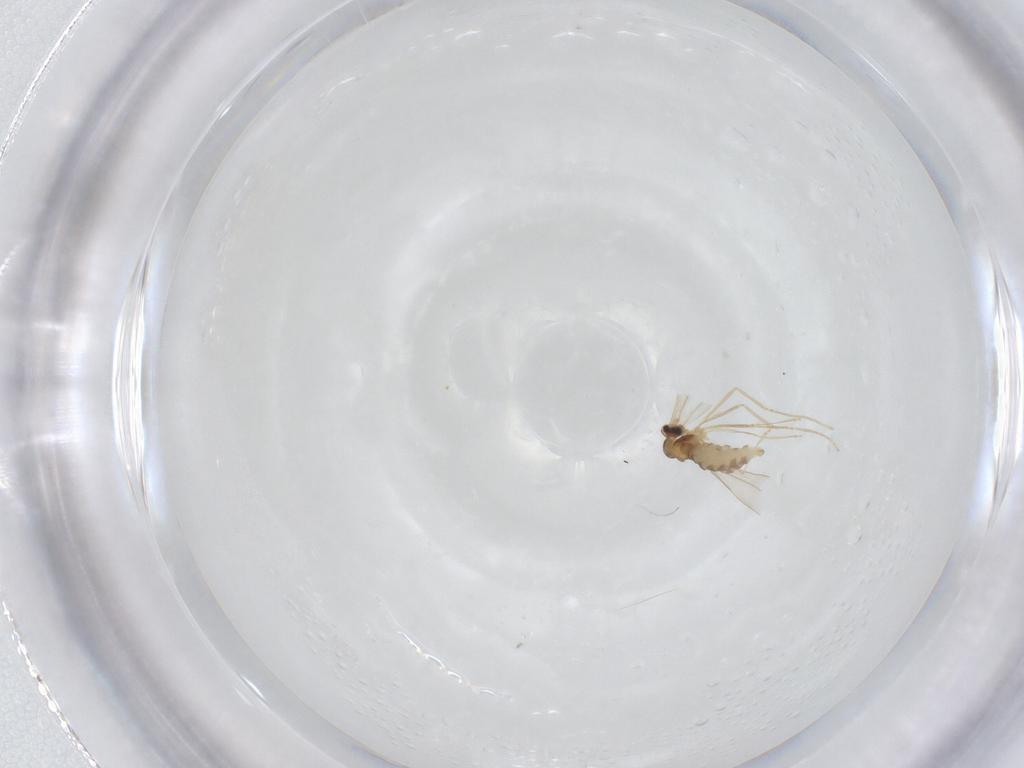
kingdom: Animalia
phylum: Arthropoda
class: Insecta
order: Diptera
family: Cecidomyiidae
